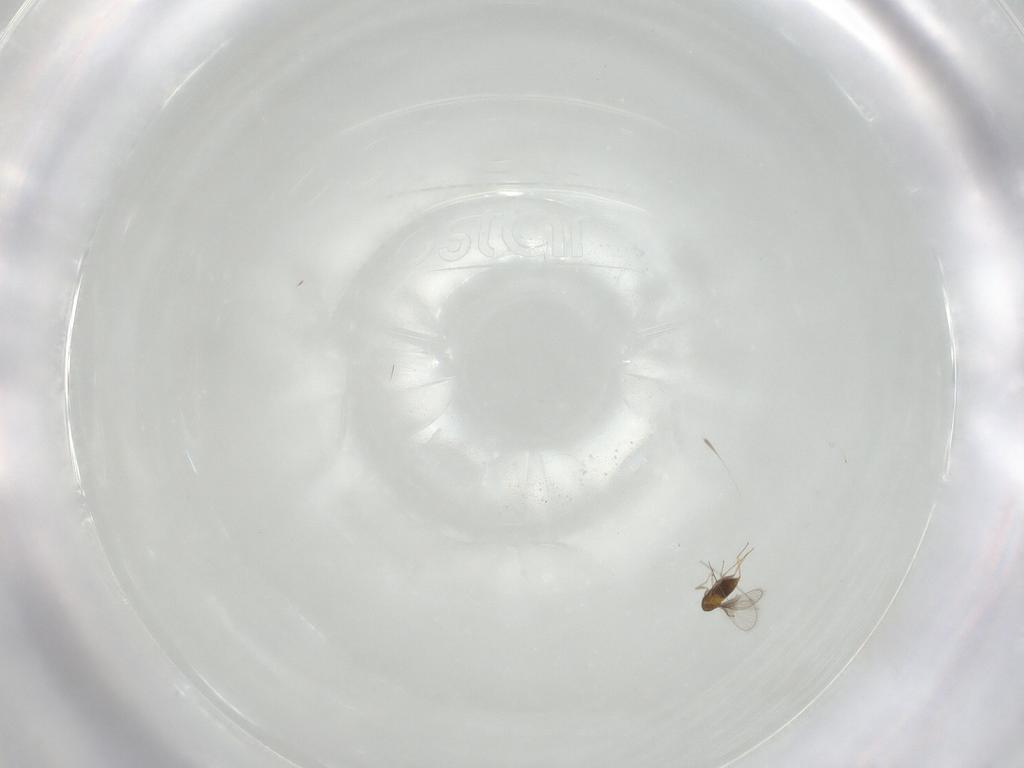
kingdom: Animalia
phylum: Arthropoda
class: Insecta
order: Hymenoptera
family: Trichogrammatidae
